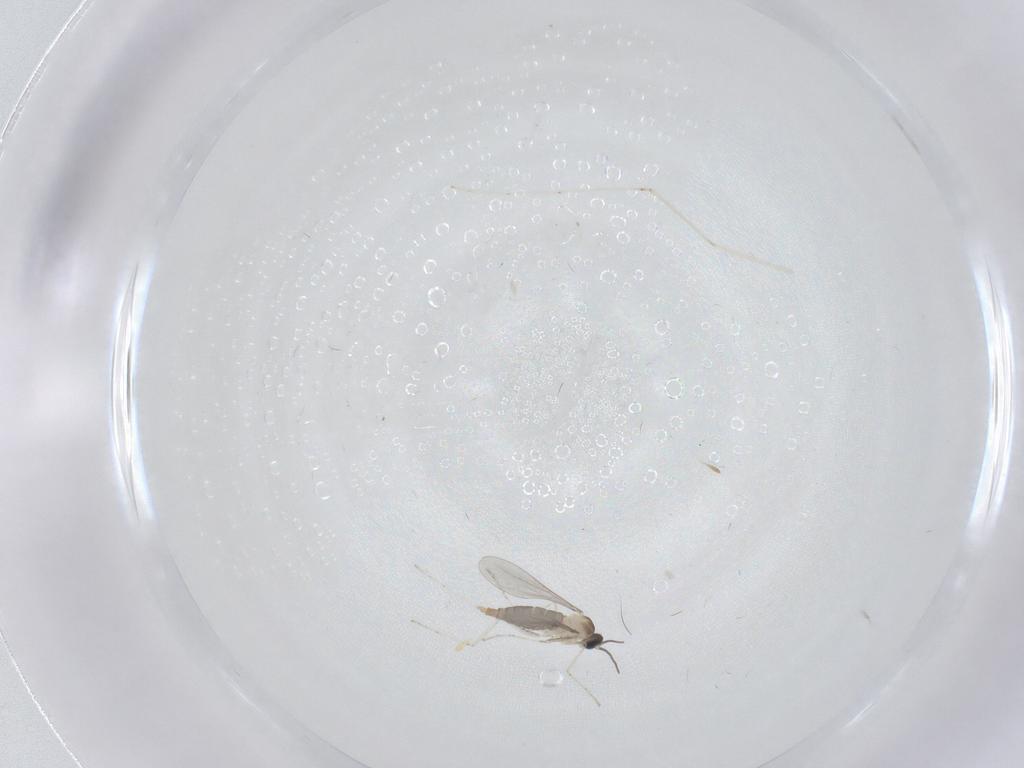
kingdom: Animalia
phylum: Arthropoda
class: Insecta
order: Diptera
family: Cecidomyiidae
